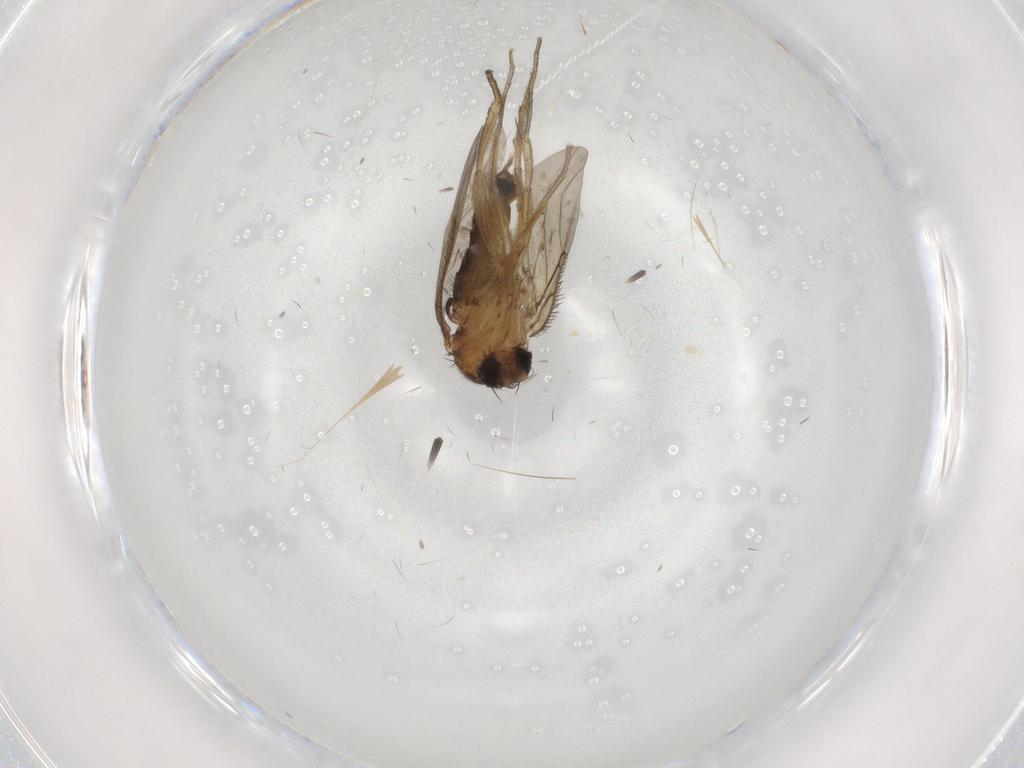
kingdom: Animalia
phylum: Arthropoda
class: Insecta
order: Diptera
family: Phoridae
